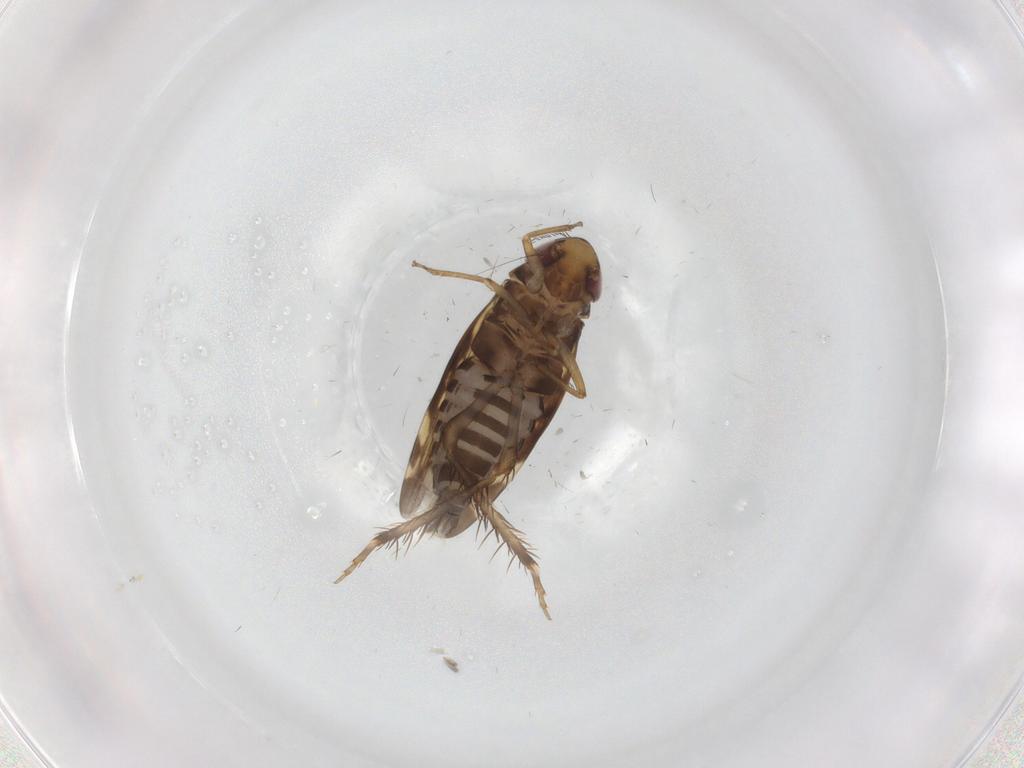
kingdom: Animalia
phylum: Arthropoda
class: Insecta
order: Hemiptera
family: Cicadellidae
